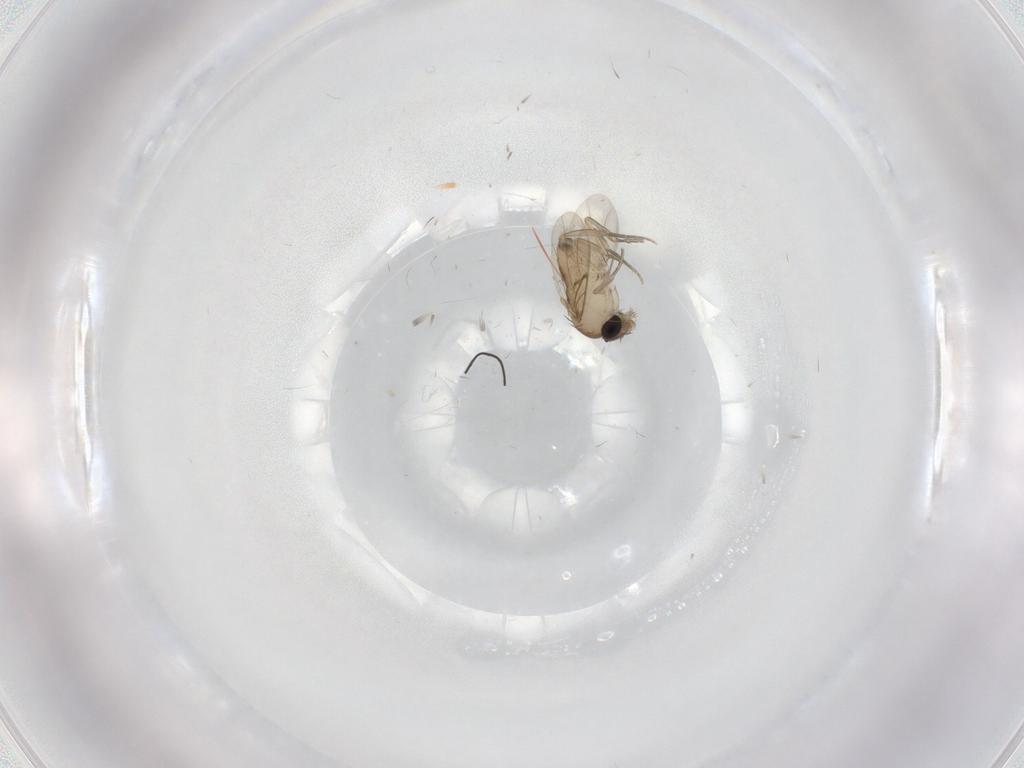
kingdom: Animalia
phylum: Arthropoda
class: Insecta
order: Diptera
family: Phoridae
